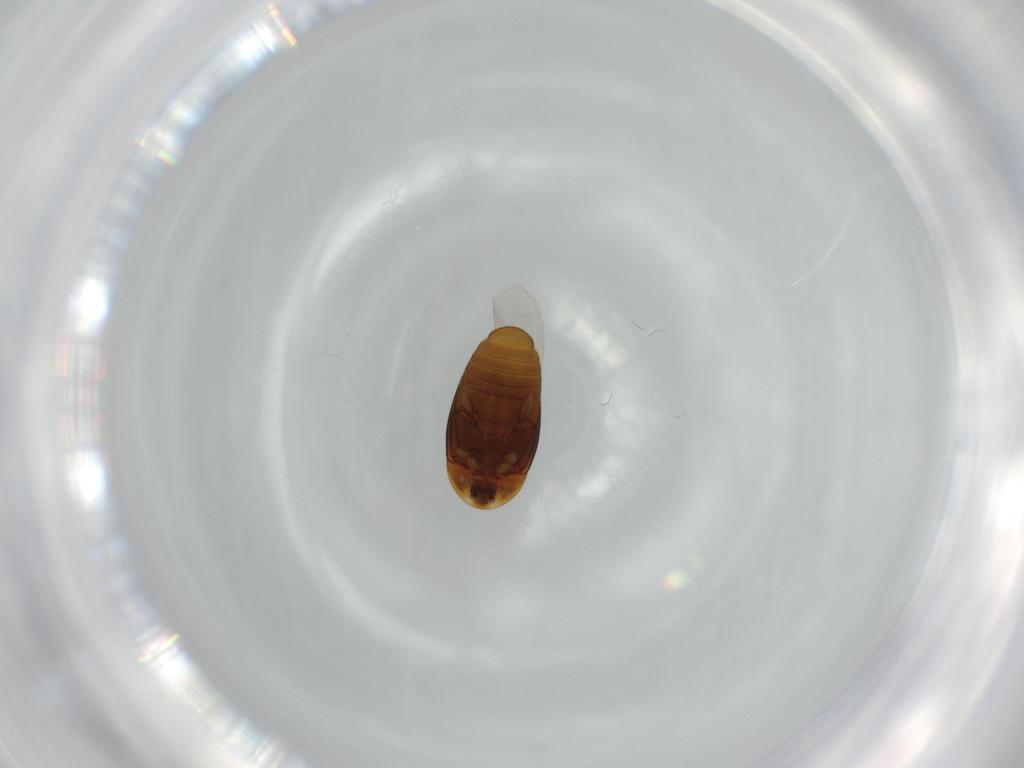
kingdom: Animalia
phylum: Arthropoda
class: Insecta
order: Coleoptera
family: Corylophidae
